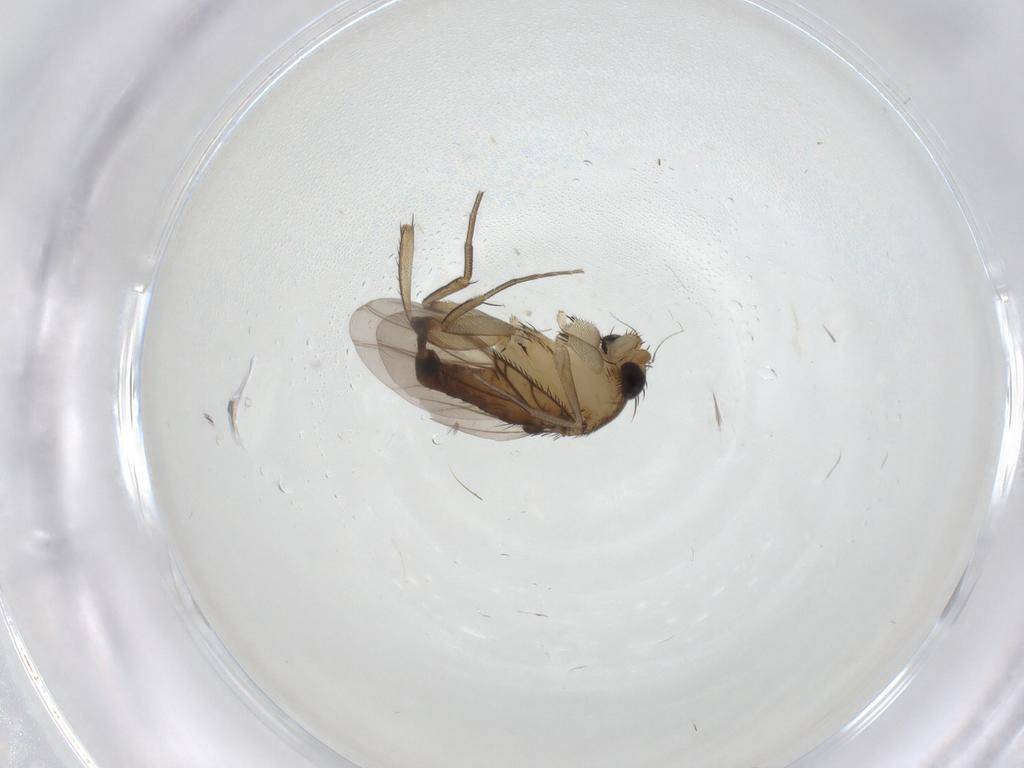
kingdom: Animalia
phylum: Arthropoda
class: Insecta
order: Diptera
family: Phoridae
